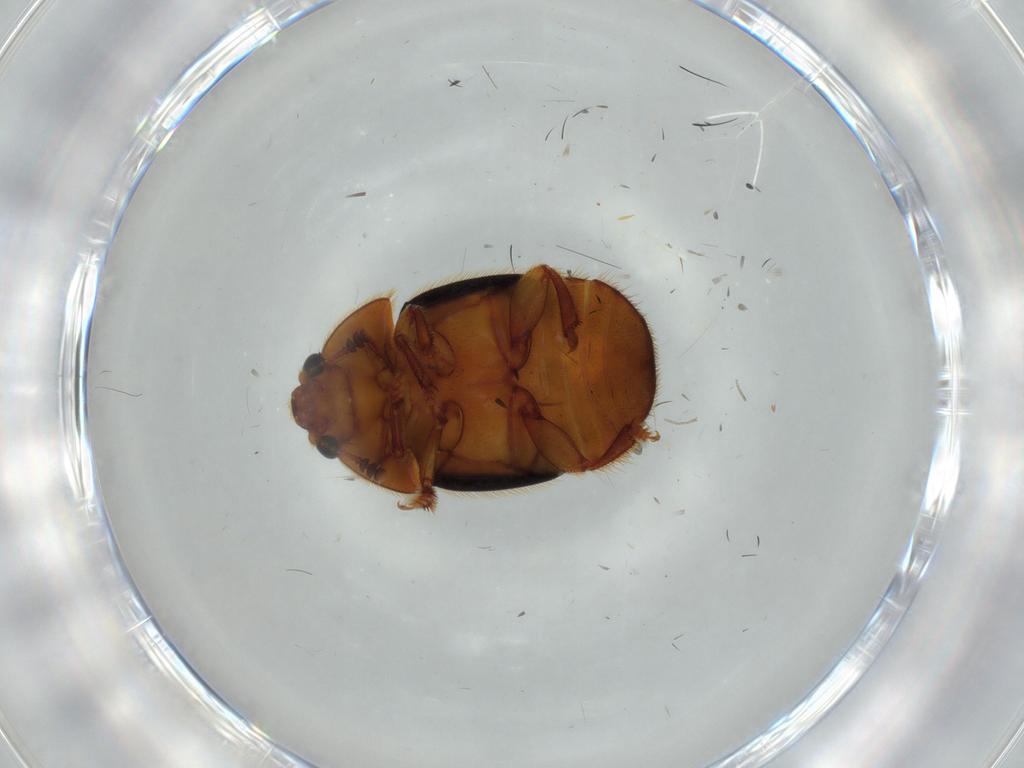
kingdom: Animalia
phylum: Arthropoda
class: Insecta
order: Coleoptera
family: Nitidulidae
